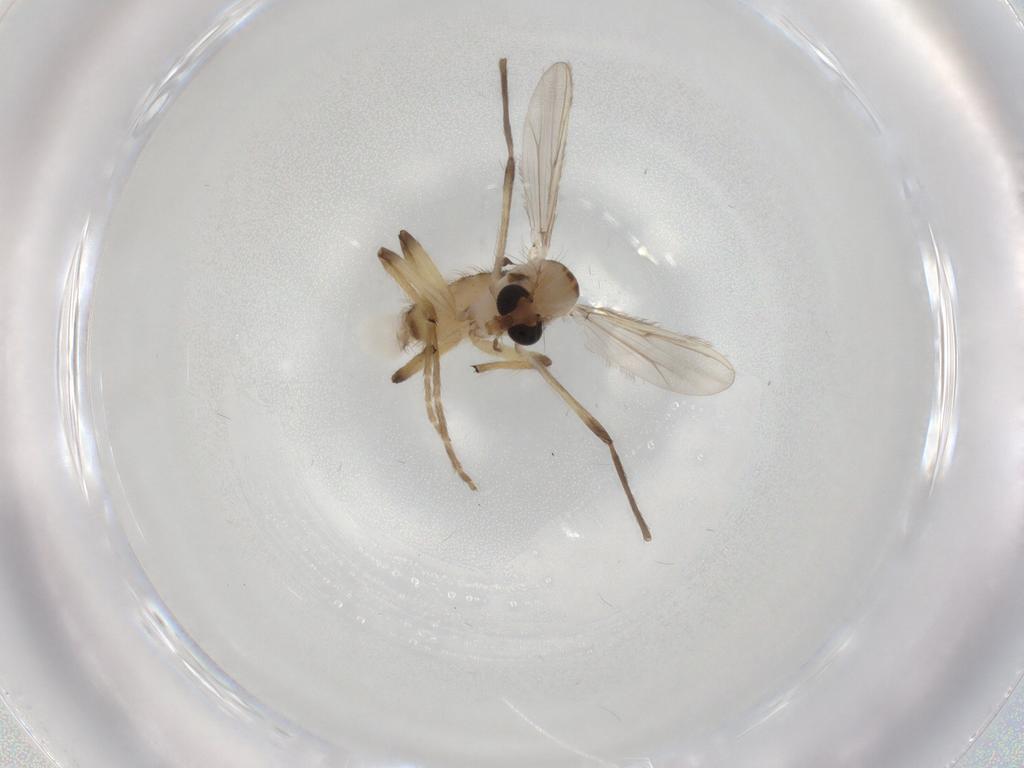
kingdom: Animalia
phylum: Arthropoda
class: Insecta
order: Diptera
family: Chironomidae
